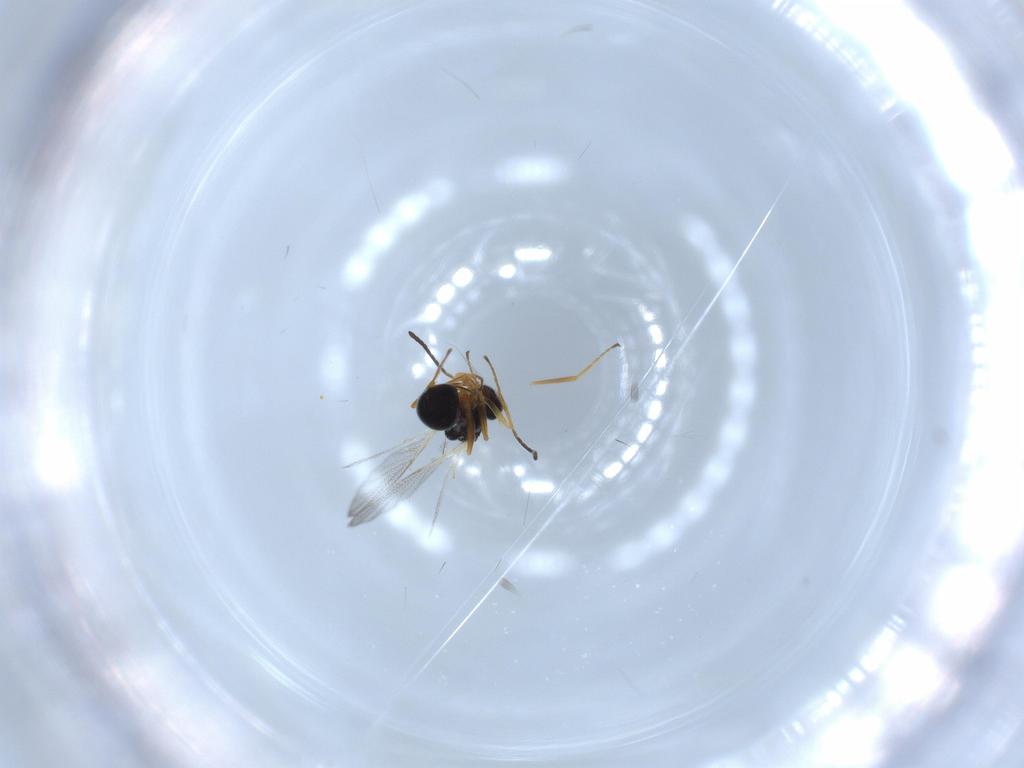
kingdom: Animalia
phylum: Arthropoda
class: Insecta
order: Hymenoptera
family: Figitidae
